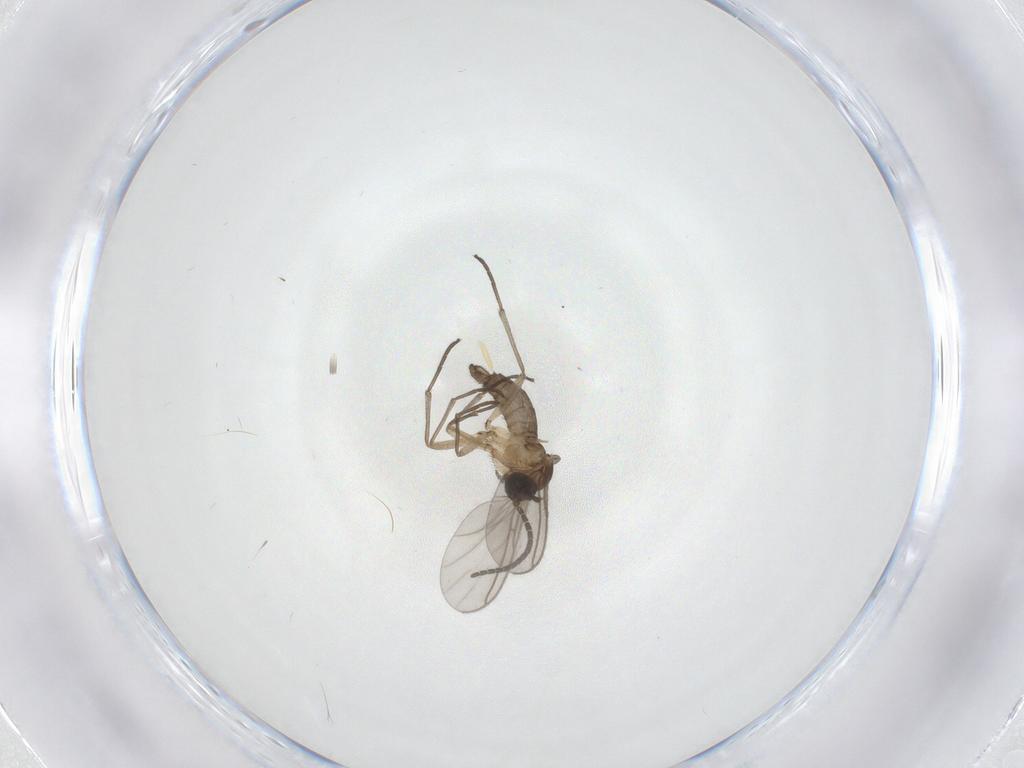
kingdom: Animalia
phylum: Arthropoda
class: Insecta
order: Diptera
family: Sciaridae
